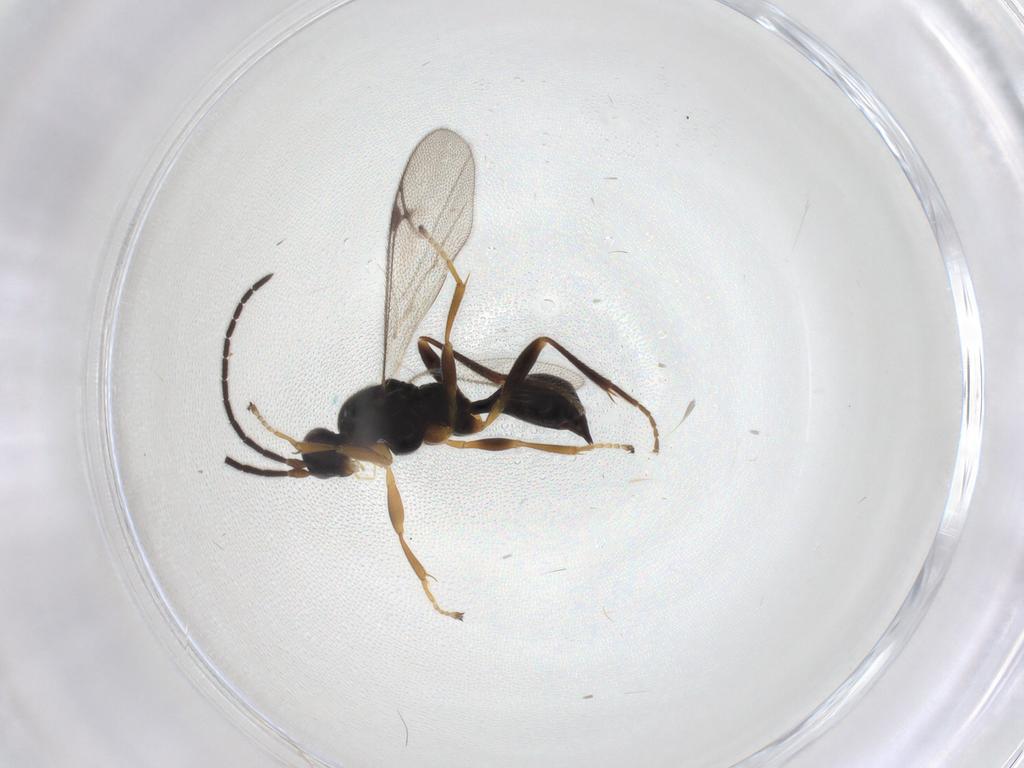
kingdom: Animalia
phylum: Arthropoda
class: Insecta
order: Hymenoptera
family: Proctotrupidae
